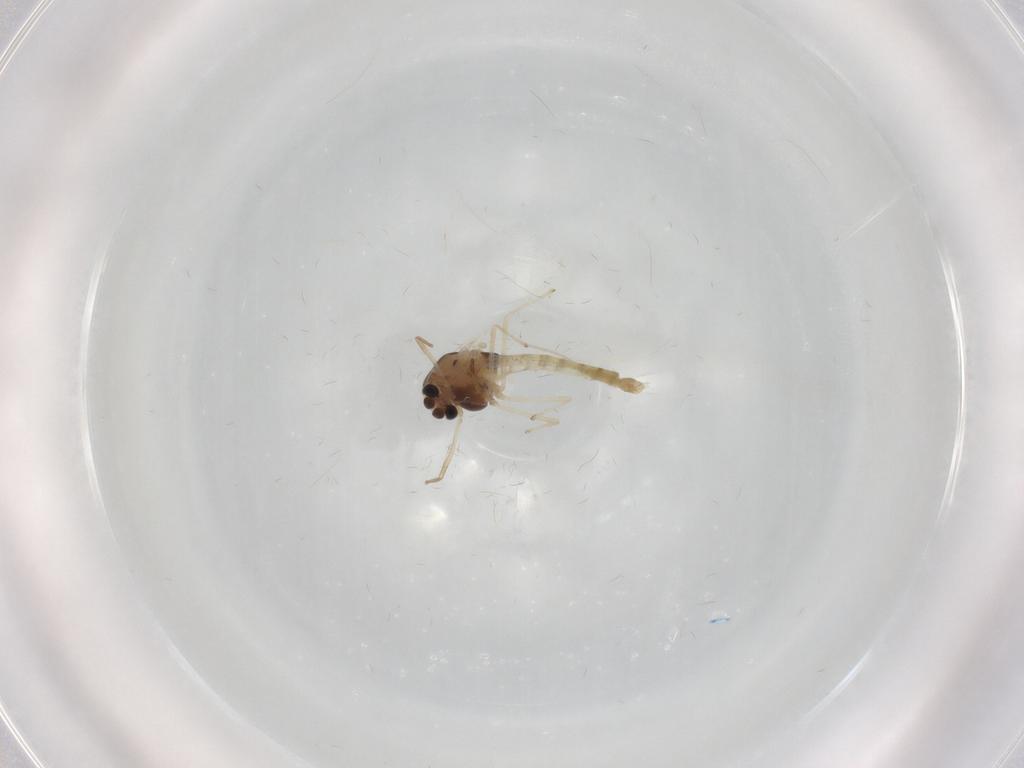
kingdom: Animalia
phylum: Arthropoda
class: Insecta
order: Diptera
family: Chironomidae
